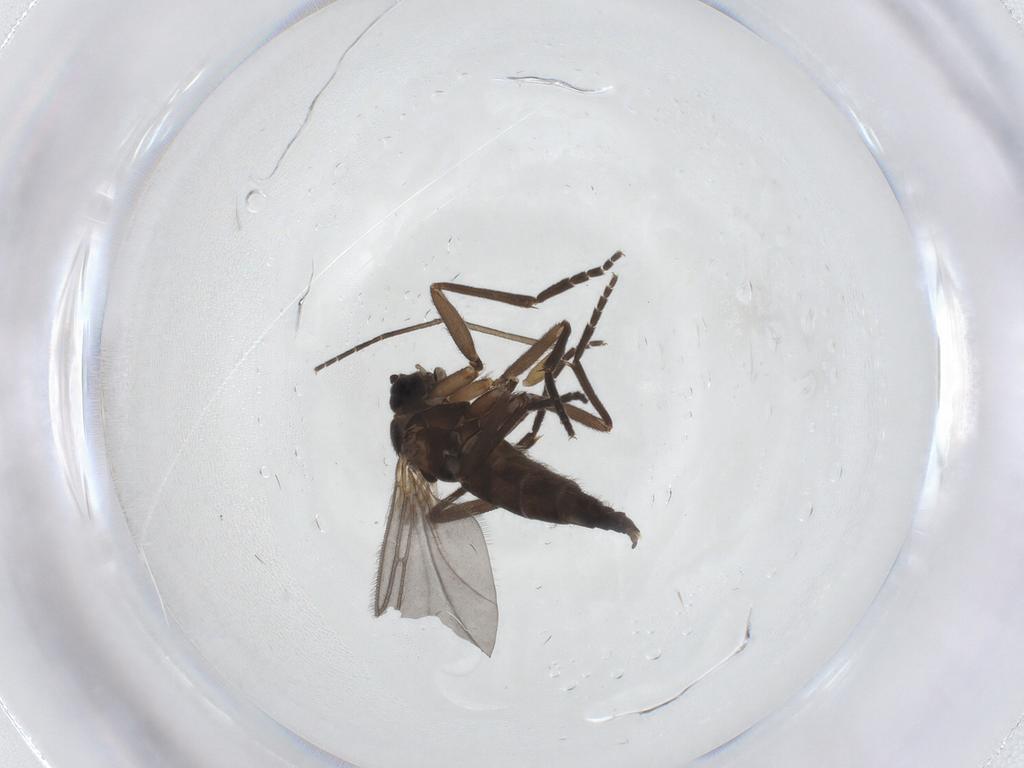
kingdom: Animalia
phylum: Arthropoda
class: Insecta
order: Diptera
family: Sciaridae
